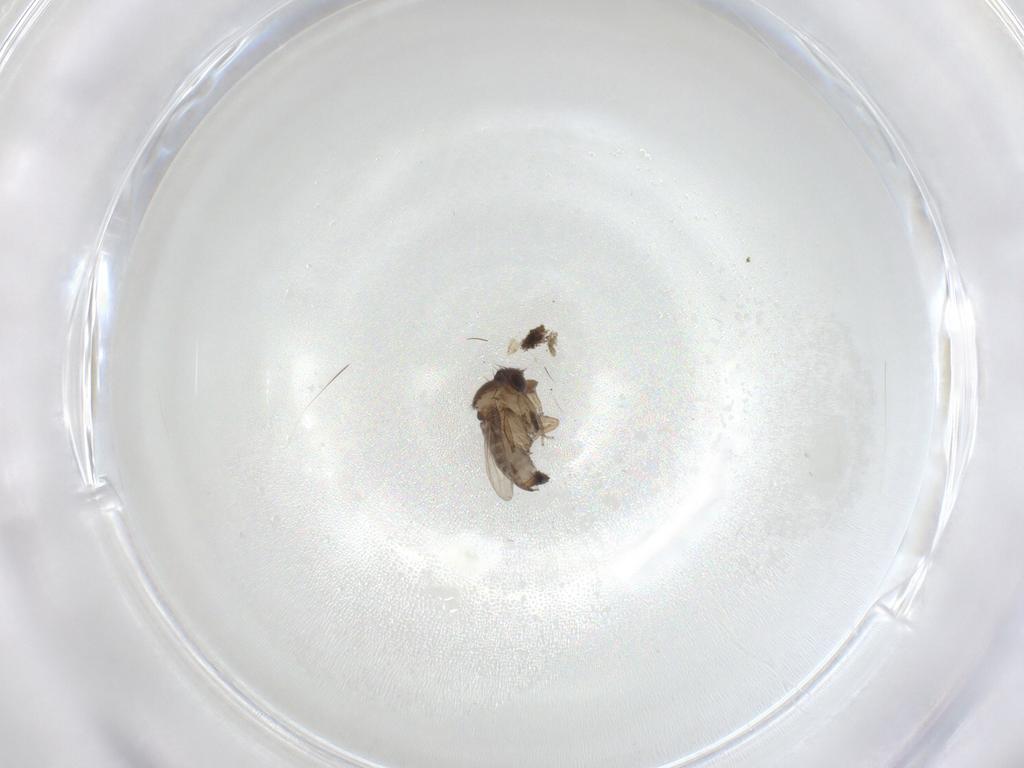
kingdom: Animalia
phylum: Arthropoda
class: Insecta
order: Diptera
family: Phoridae
